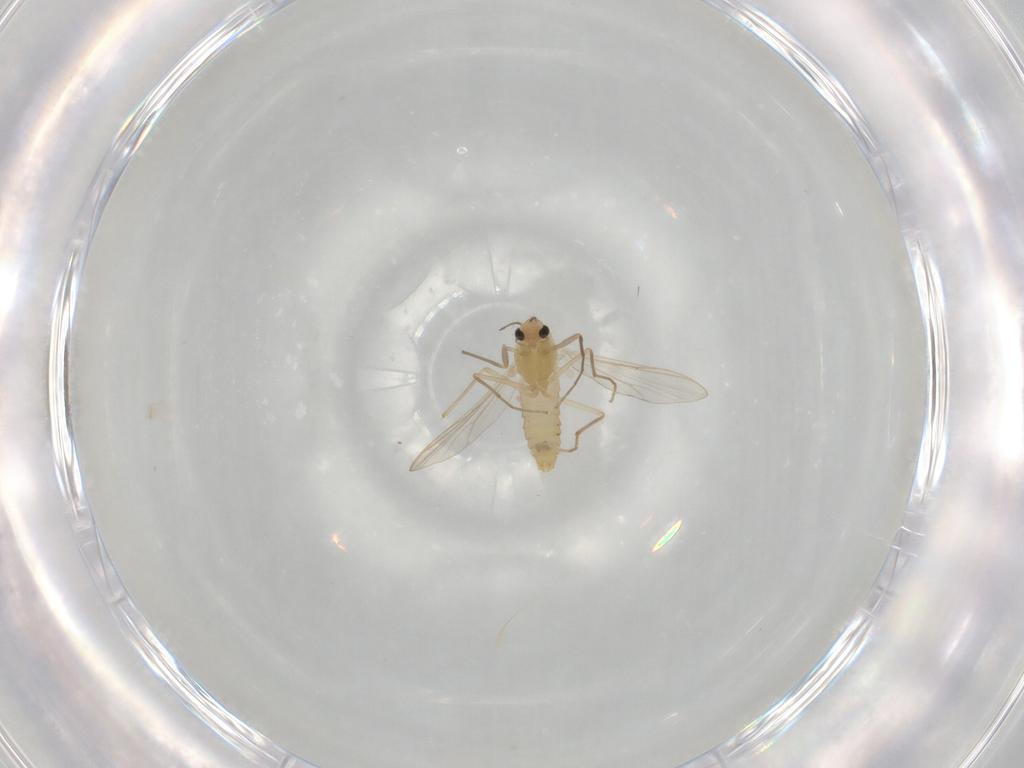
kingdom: Animalia
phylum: Arthropoda
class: Insecta
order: Diptera
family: Chironomidae
